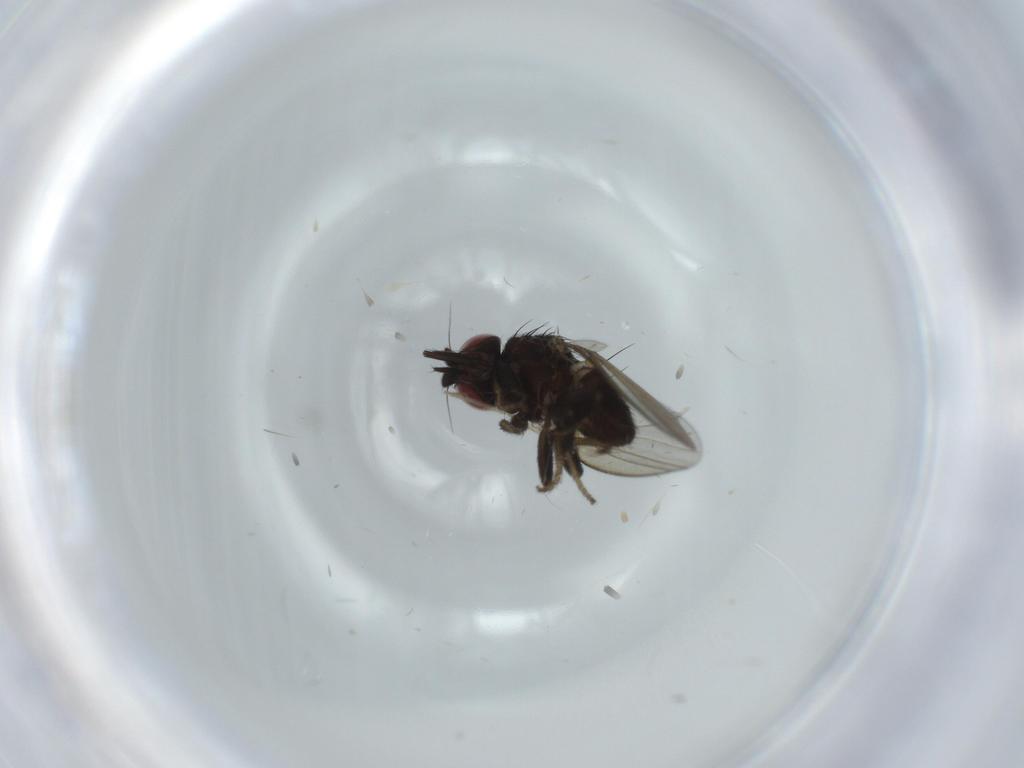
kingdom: Animalia
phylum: Arthropoda
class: Insecta
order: Diptera
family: Milichiidae
